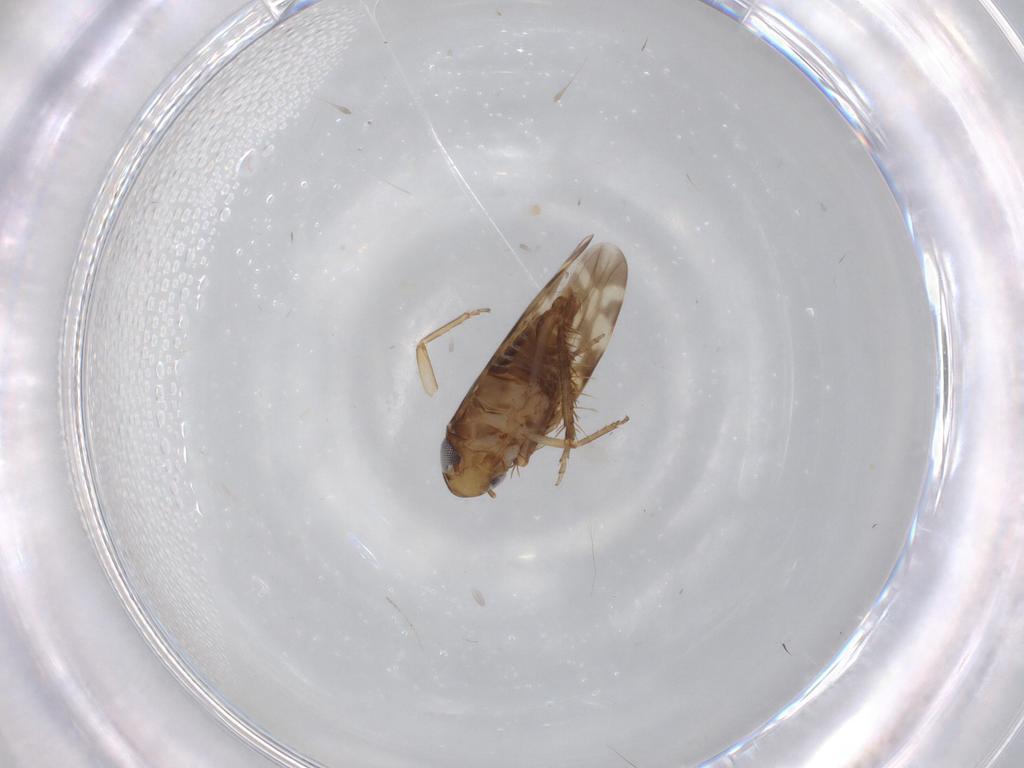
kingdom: Animalia
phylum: Arthropoda
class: Insecta
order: Hemiptera
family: Cicadellidae
